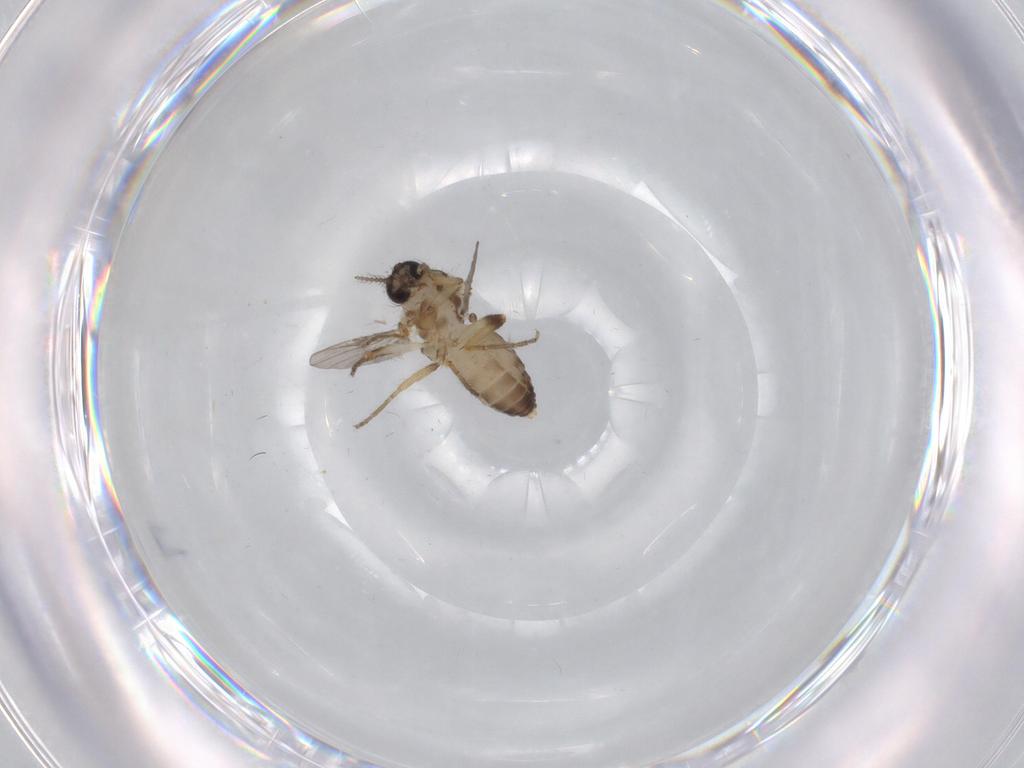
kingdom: Animalia
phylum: Arthropoda
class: Insecta
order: Diptera
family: Ceratopogonidae
